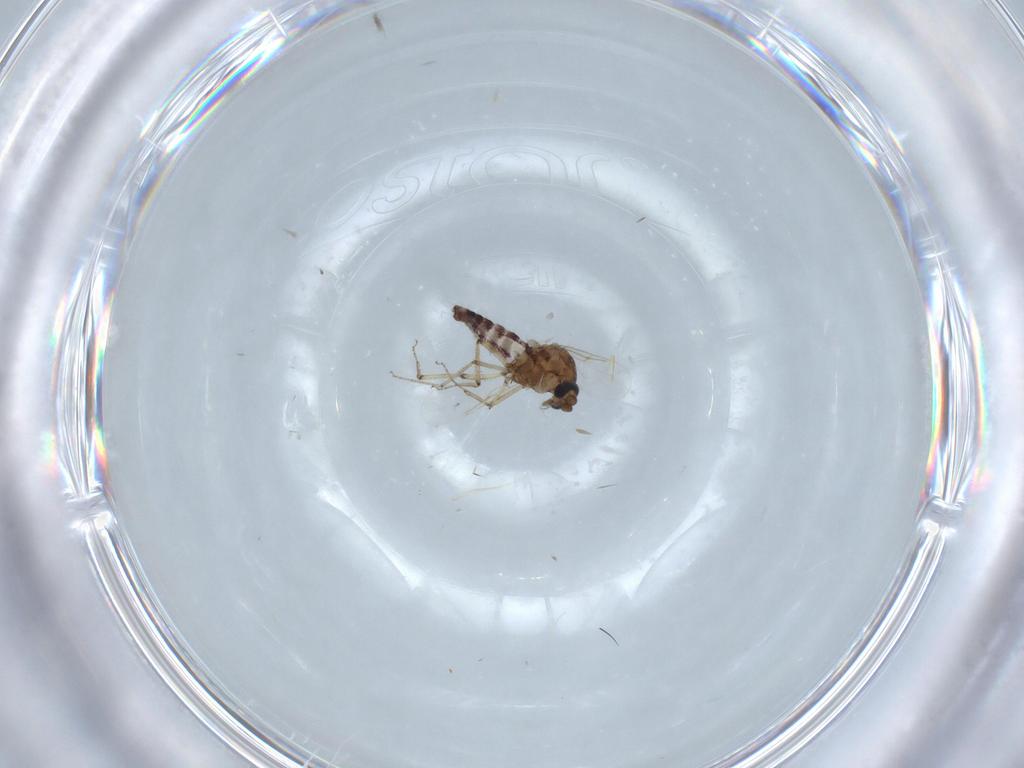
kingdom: Animalia
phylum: Arthropoda
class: Insecta
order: Diptera
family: Ceratopogonidae
